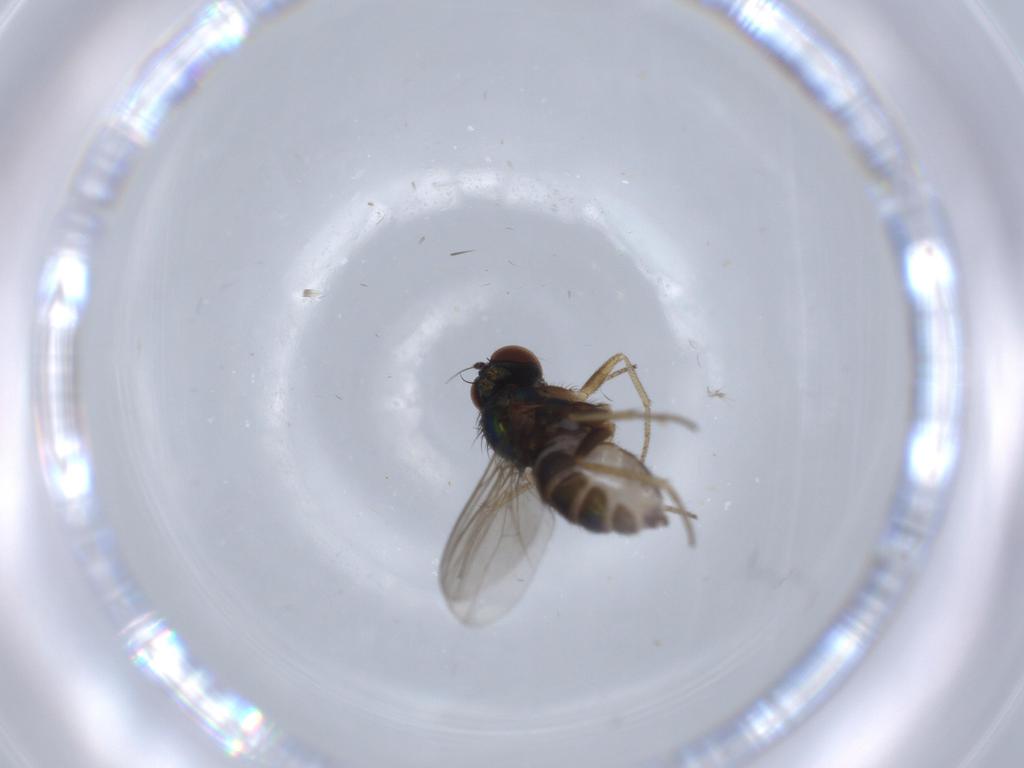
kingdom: Animalia
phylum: Arthropoda
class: Insecta
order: Diptera
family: Cecidomyiidae
